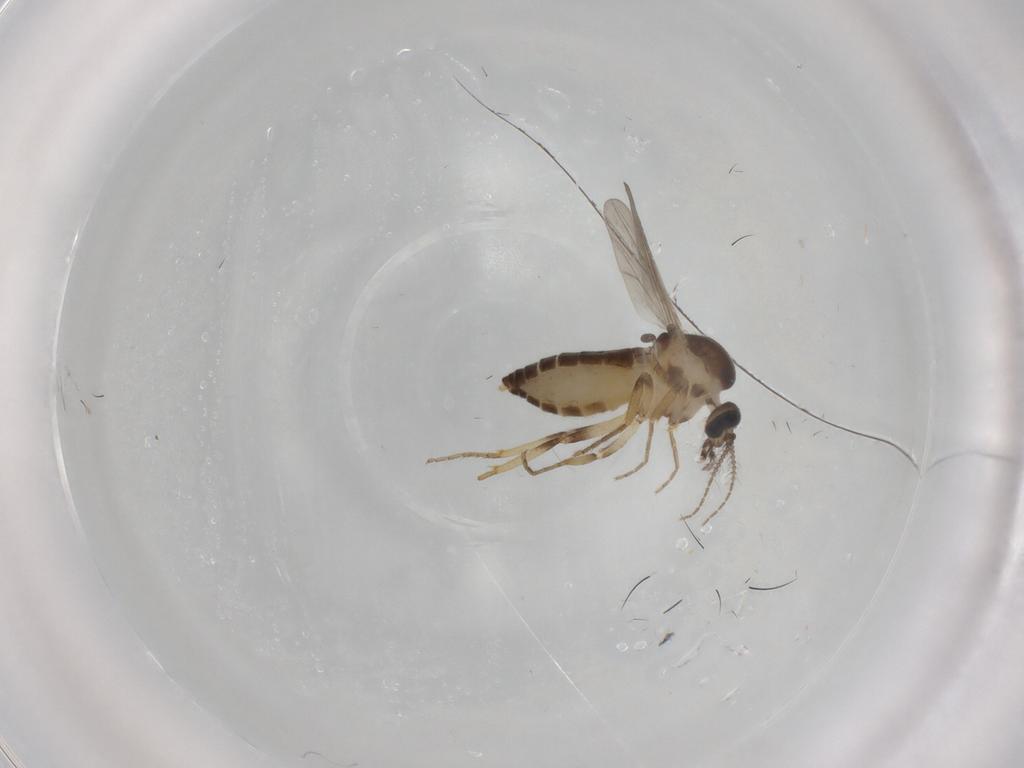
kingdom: Animalia
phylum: Arthropoda
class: Insecta
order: Diptera
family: Ceratopogonidae
